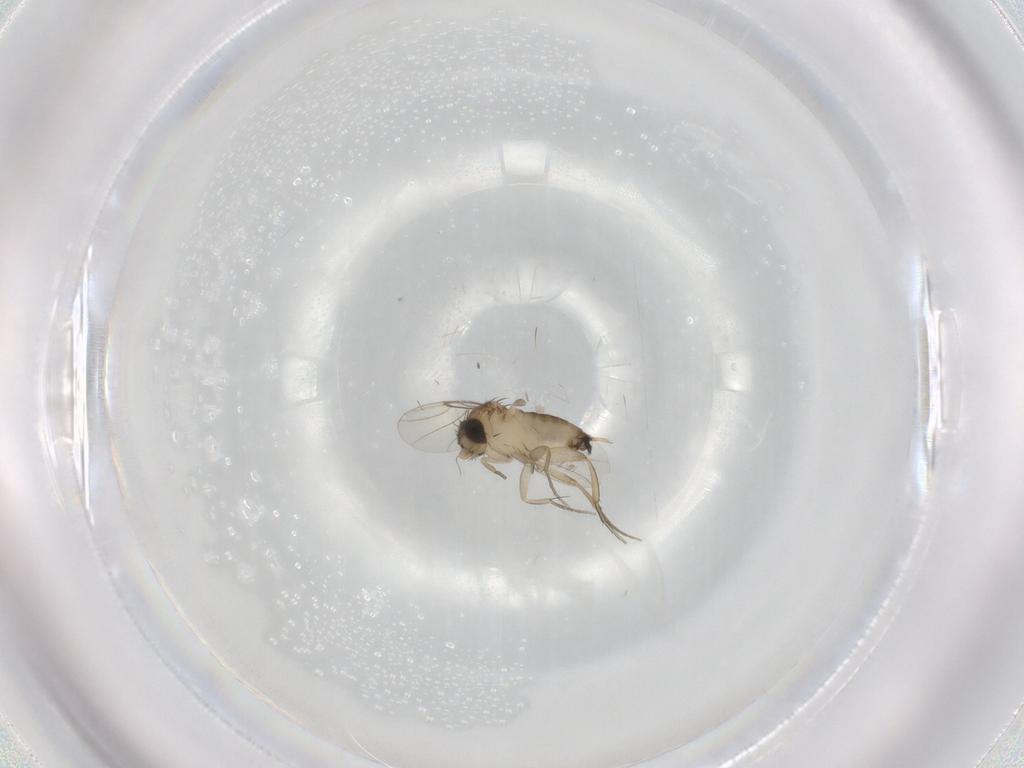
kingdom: Animalia
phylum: Arthropoda
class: Insecta
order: Diptera
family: Phoridae
